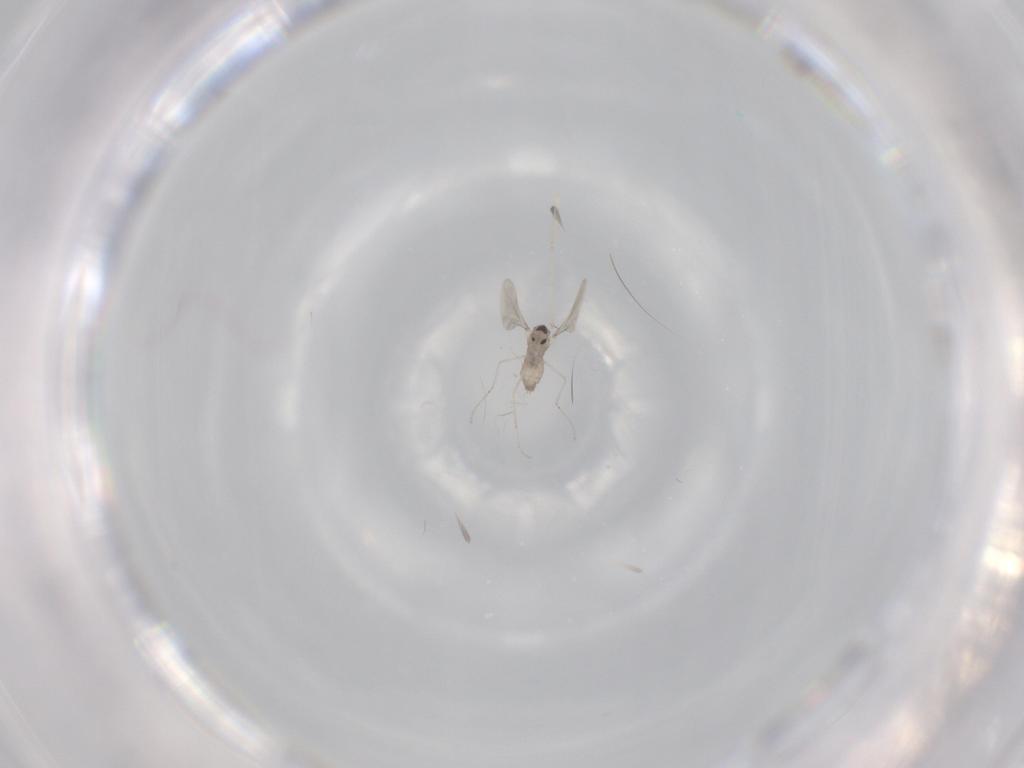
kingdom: Animalia
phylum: Arthropoda
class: Insecta
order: Diptera
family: Cecidomyiidae
